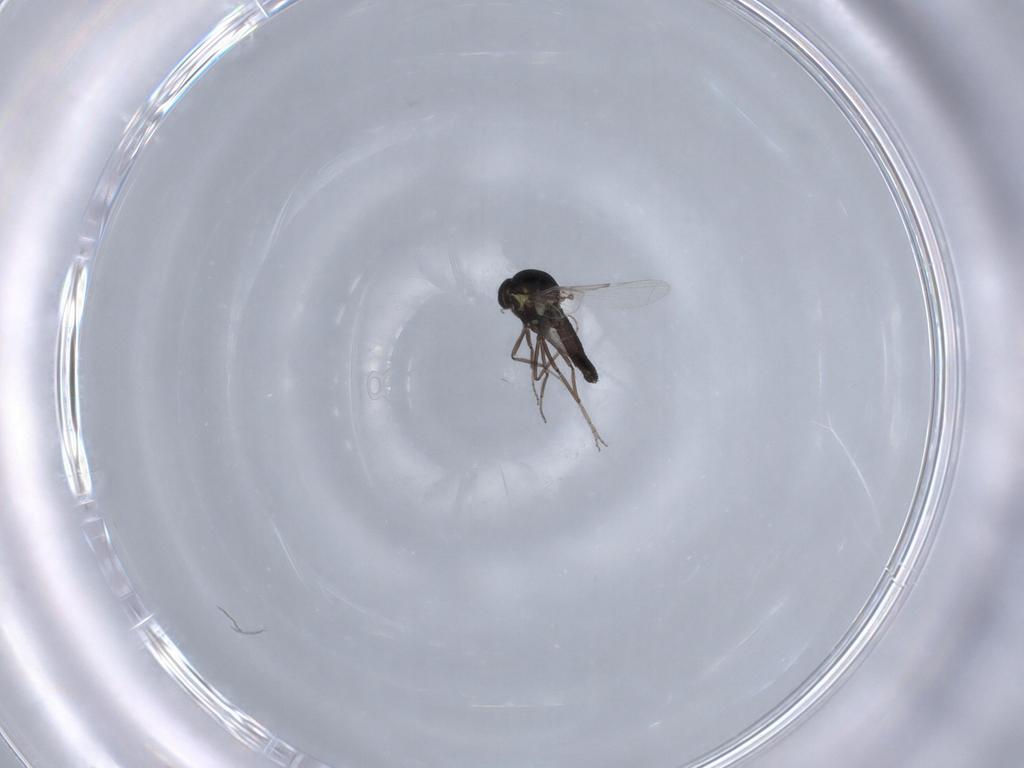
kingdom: Animalia
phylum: Arthropoda
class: Insecta
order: Diptera
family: Ceratopogonidae
